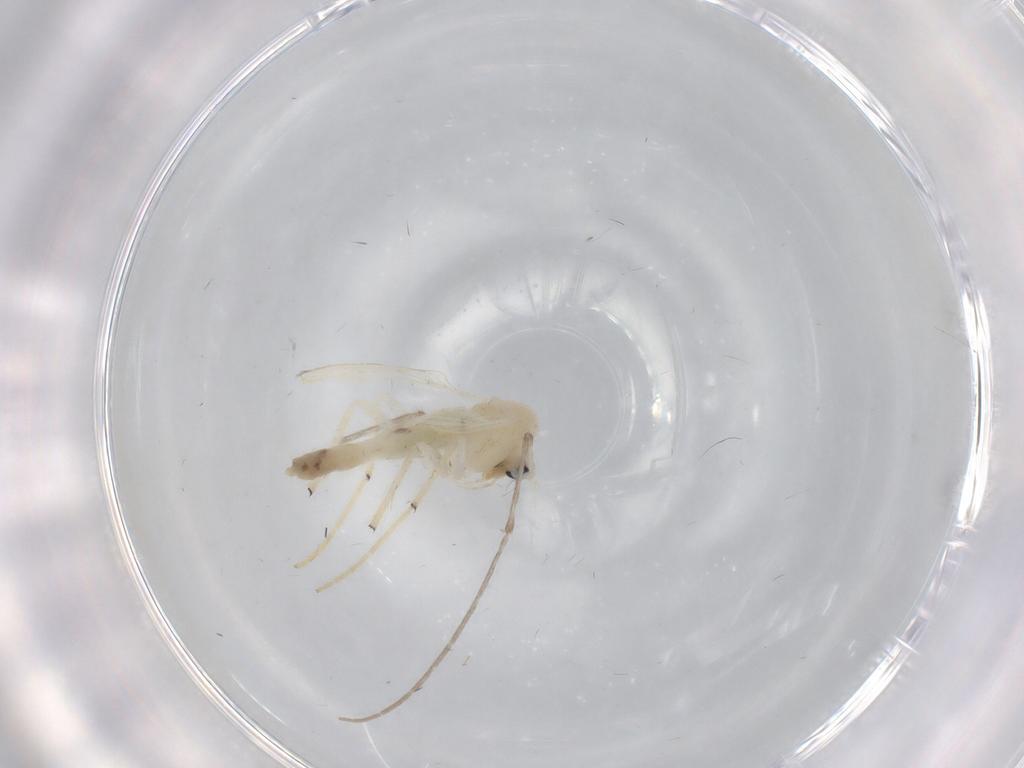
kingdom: Animalia
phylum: Arthropoda
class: Insecta
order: Diptera
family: Chironomidae
